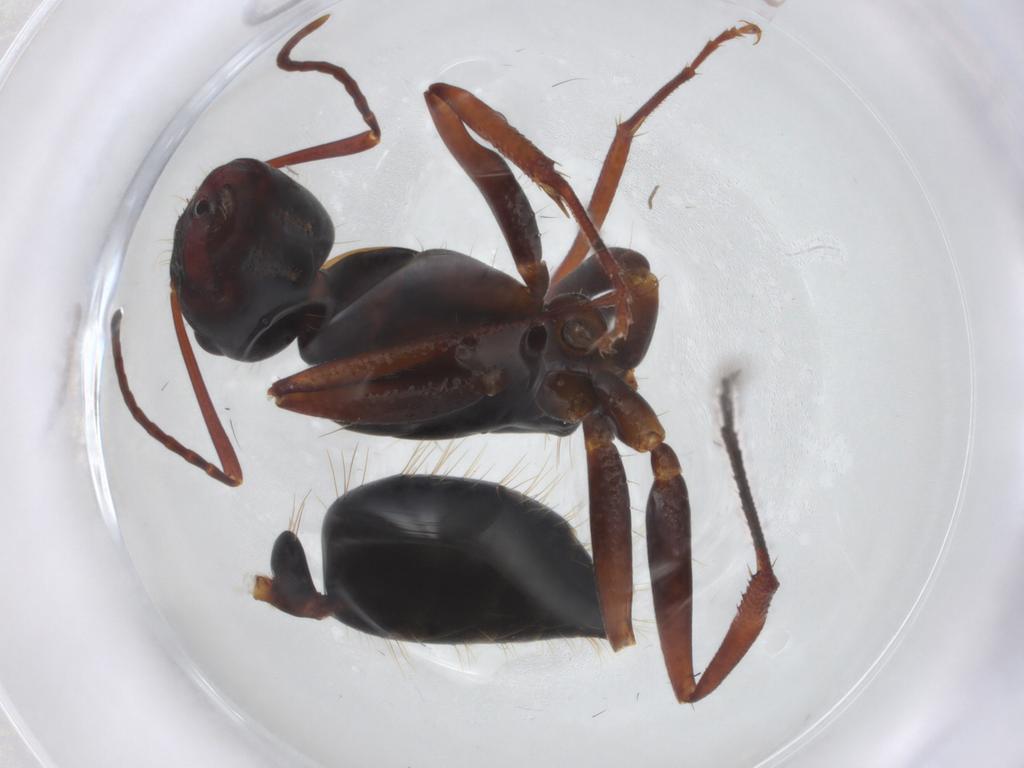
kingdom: Animalia
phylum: Arthropoda
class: Insecta
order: Hymenoptera
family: Formicidae
